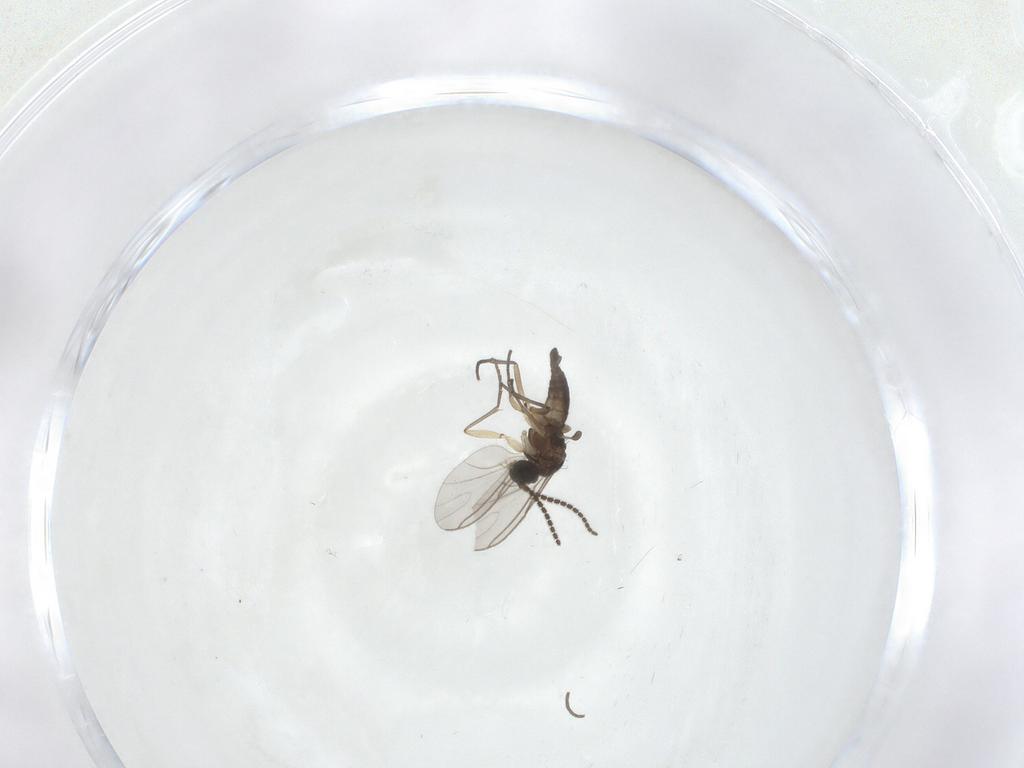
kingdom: Animalia
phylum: Arthropoda
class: Insecta
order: Diptera
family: Sciaridae
